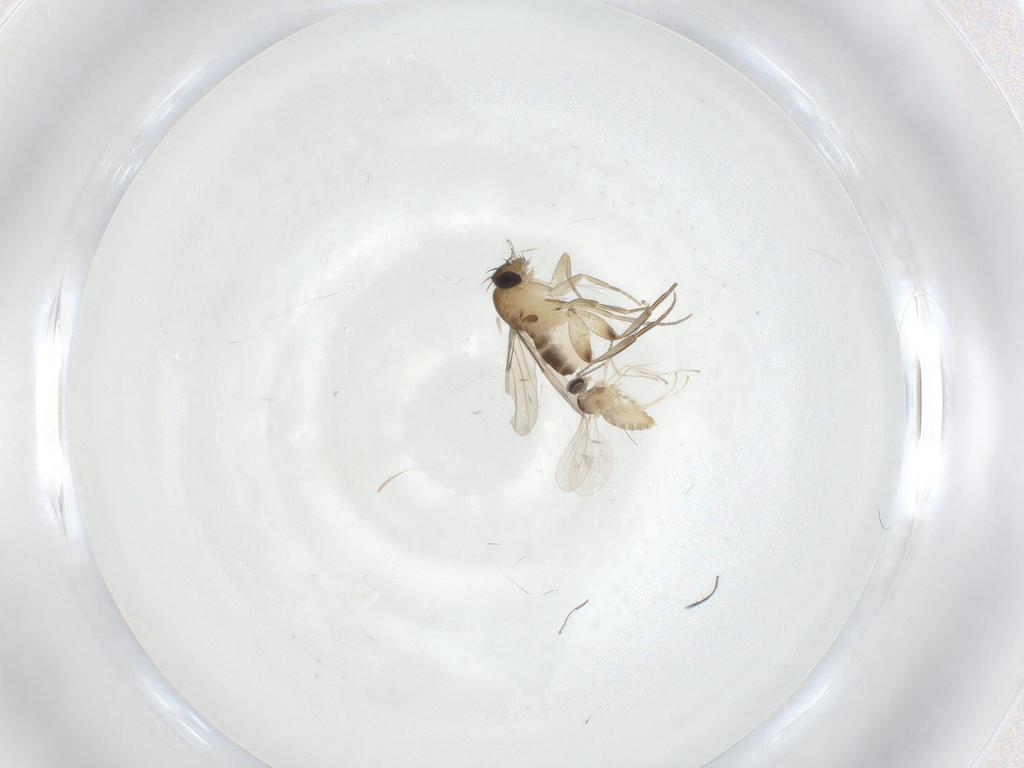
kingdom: Animalia
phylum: Arthropoda
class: Insecta
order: Diptera
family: Phoridae
